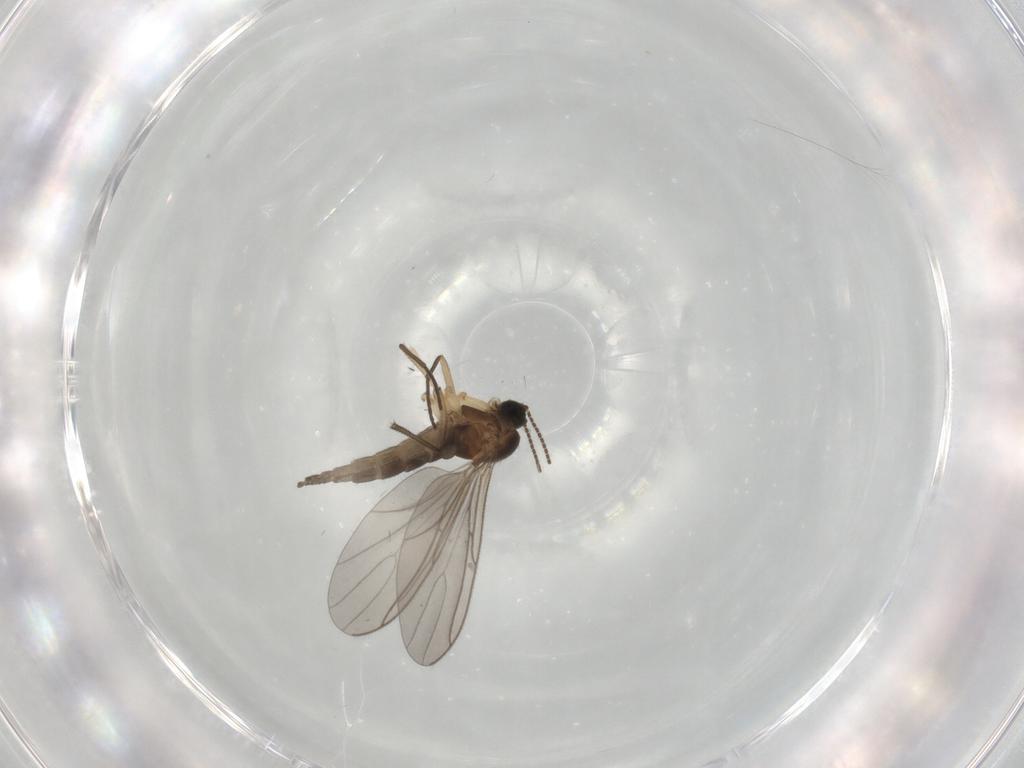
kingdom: Animalia
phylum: Arthropoda
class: Insecta
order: Diptera
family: Sciaridae
